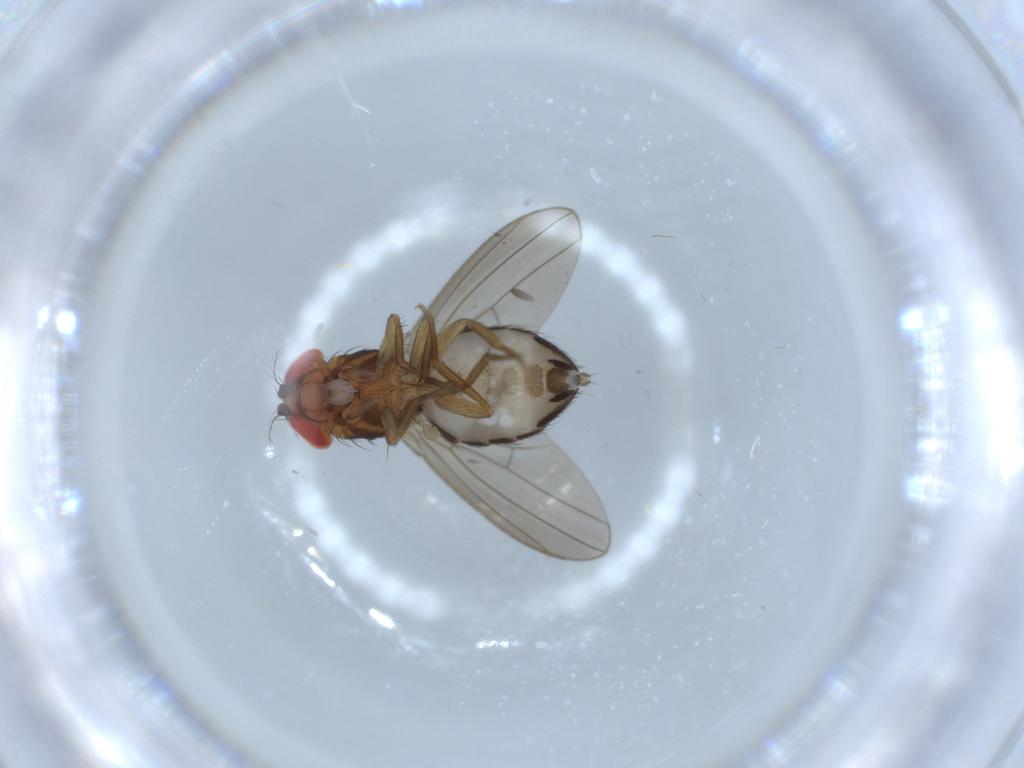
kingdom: Animalia
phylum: Arthropoda
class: Insecta
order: Diptera
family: Drosophilidae
